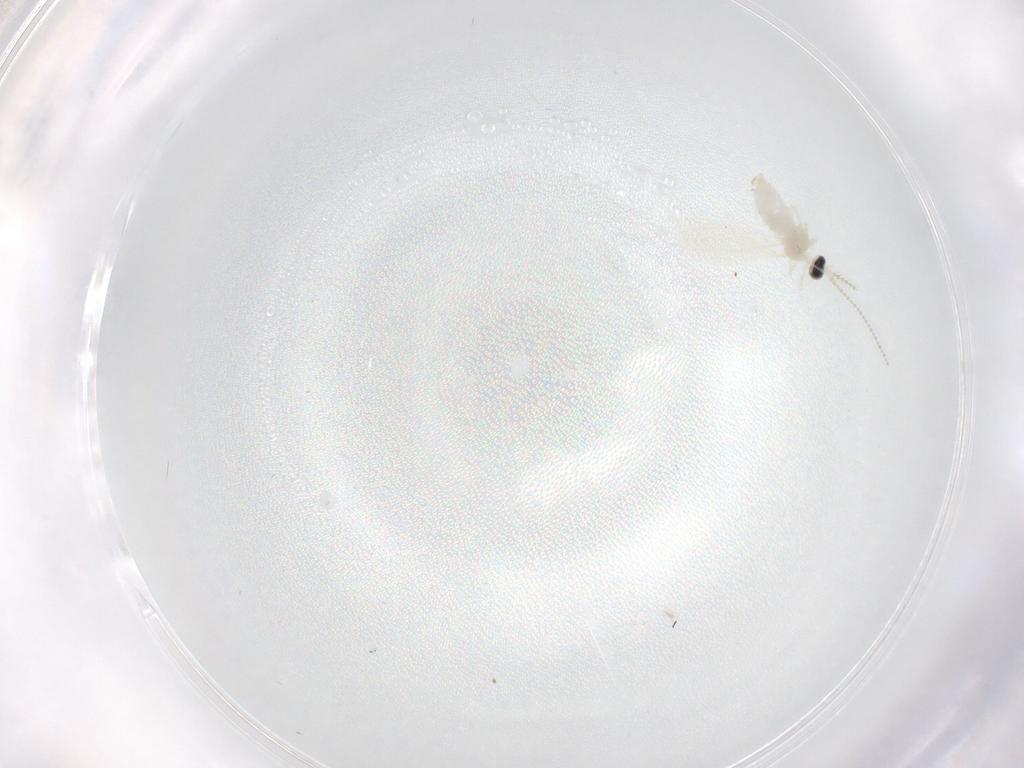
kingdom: Animalia
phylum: Arthropoda
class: Insecta
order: Diptera
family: Cecidomyiidae
